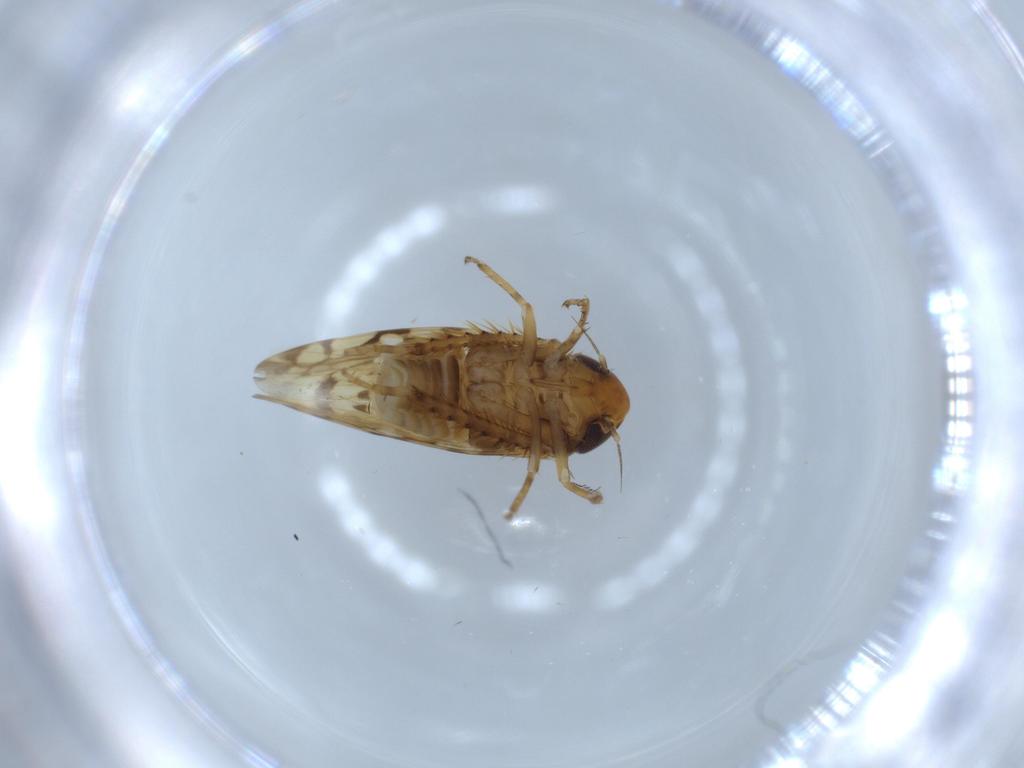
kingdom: Animalia
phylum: Arthropoda
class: Insecta
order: Hemiptera
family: Cicadellidae
